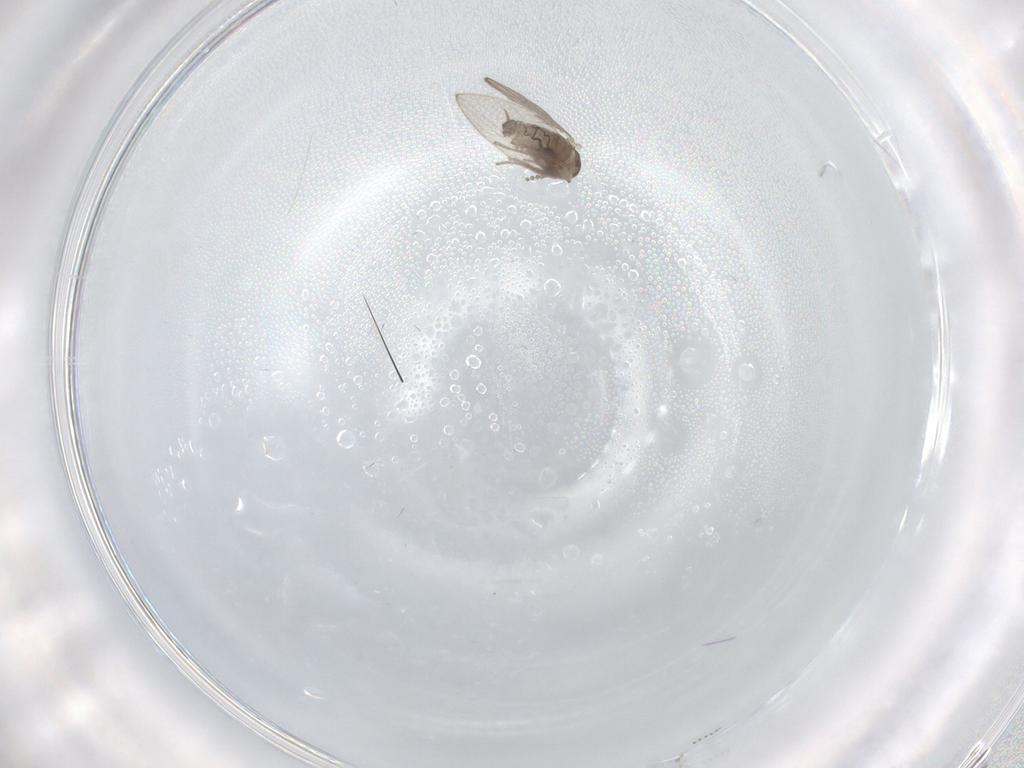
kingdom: Animalia
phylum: Arthropoda
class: Insecta
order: Diptera
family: Psychodidae
